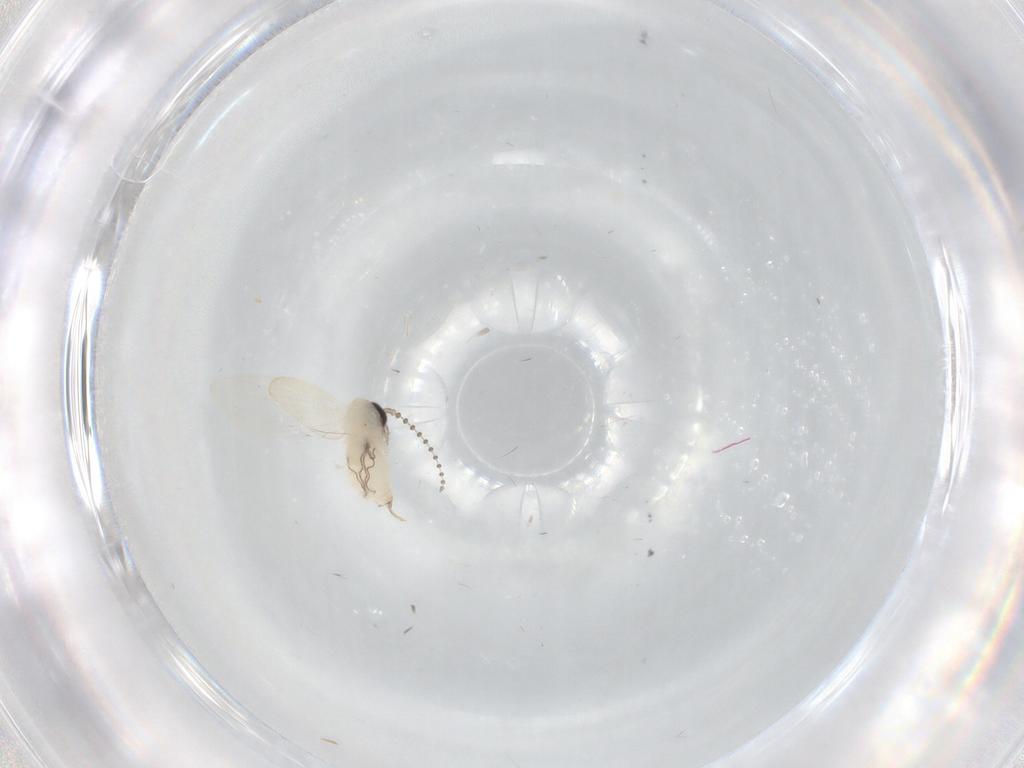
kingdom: Animalia
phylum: Arthropoda
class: Insecta
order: Diptera
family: Psychodidae
